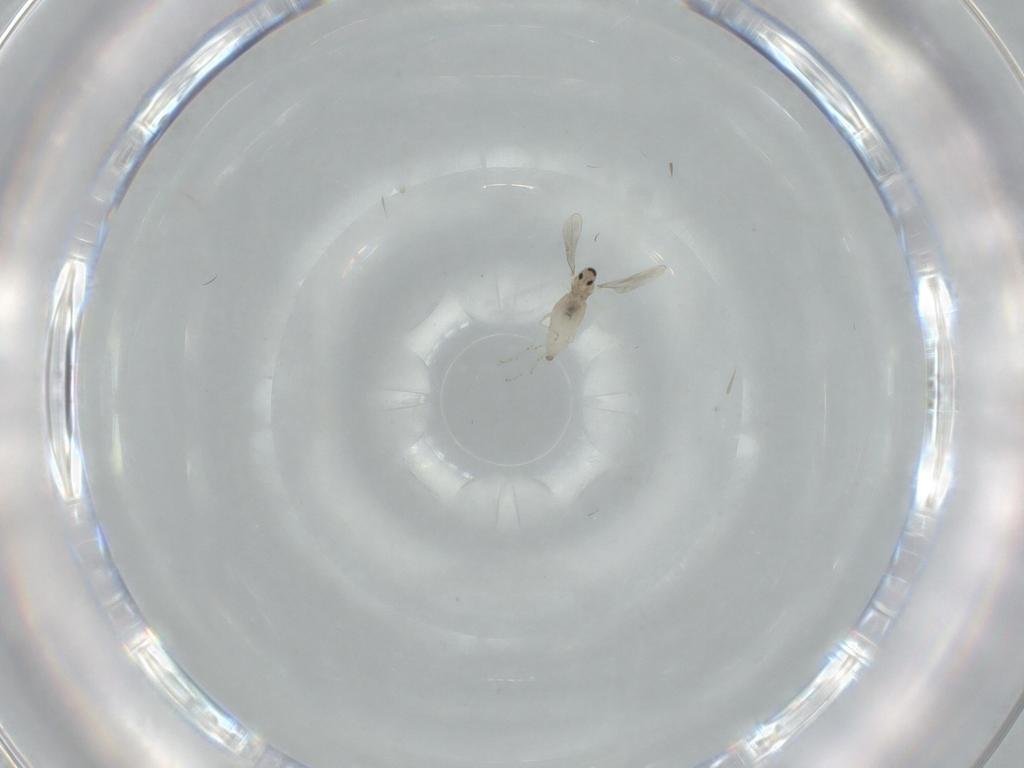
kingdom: Animalia
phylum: Arthropoda
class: Insecta
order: Diptera
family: Cecidomyiidae
